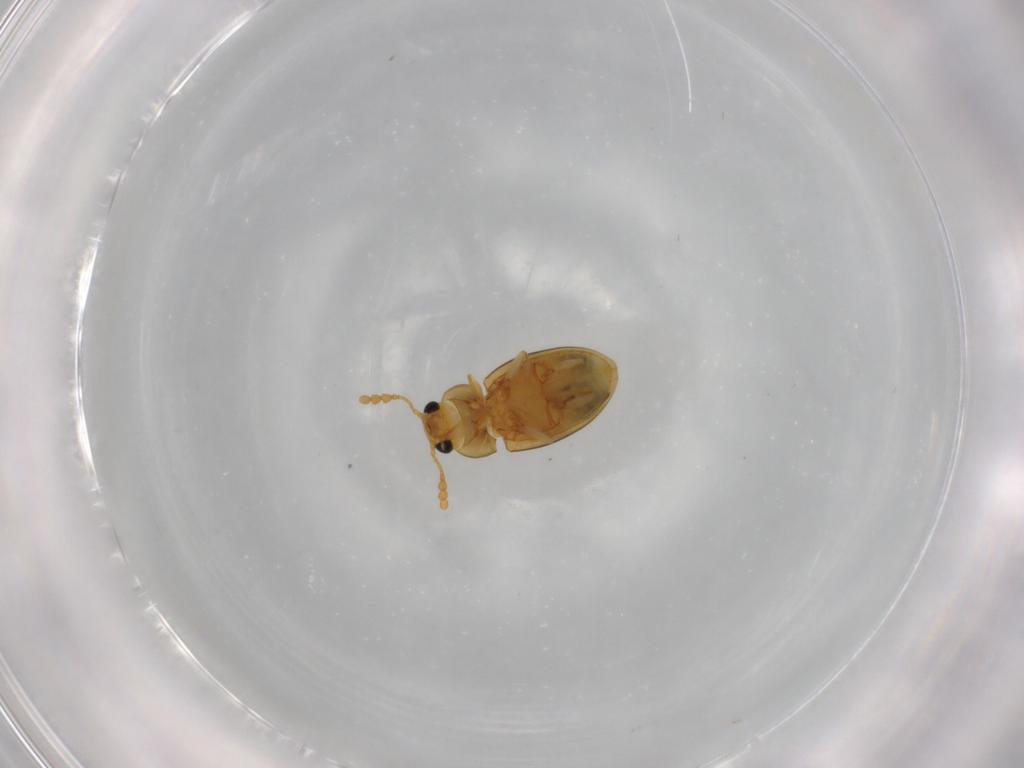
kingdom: Animalia
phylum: Arthropoda
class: Insecta
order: Coleoptera
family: Erotylidae
